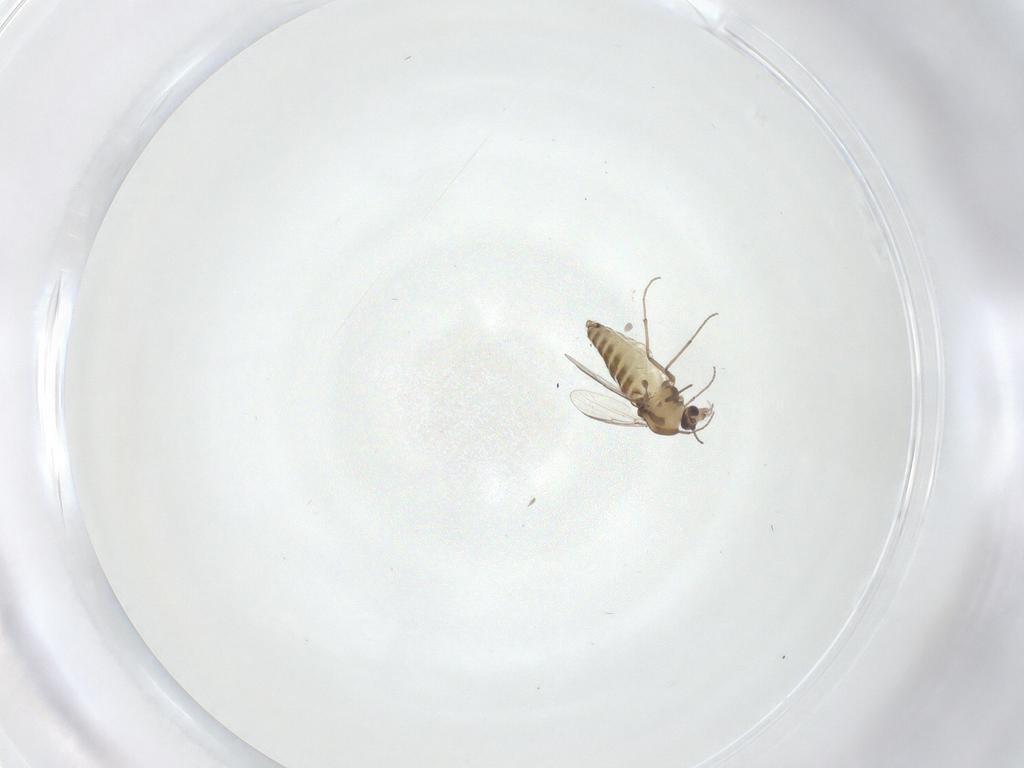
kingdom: Animalia
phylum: Arthropoda
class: Insecta
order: Diptera
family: Chironomidae
